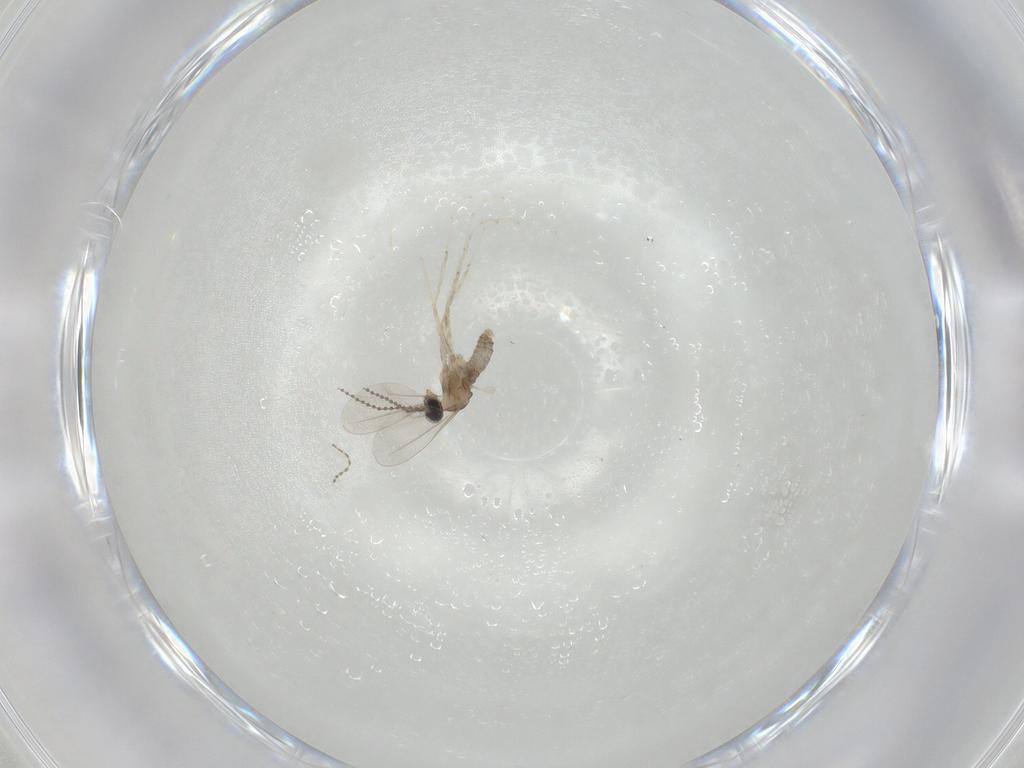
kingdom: Animalia
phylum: Arthropoda
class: Insecta
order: Diptera
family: Cecidomyiidae
